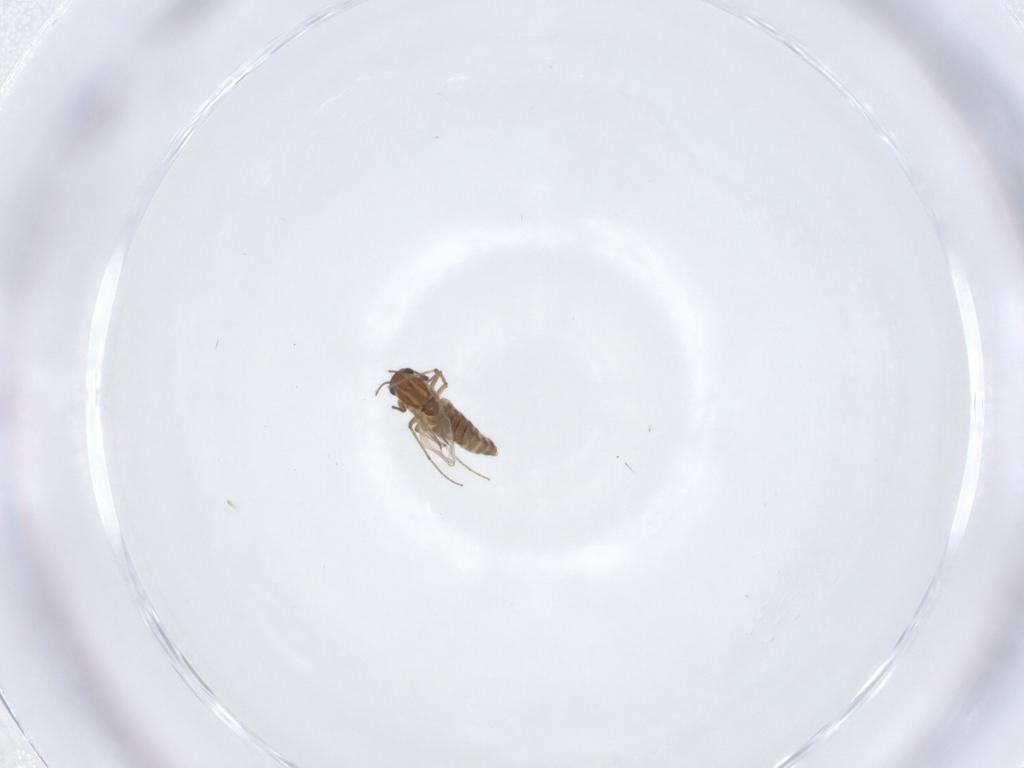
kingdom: Animalia
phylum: Arthropoda
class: Insecta
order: Diptera
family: Chironomidae
